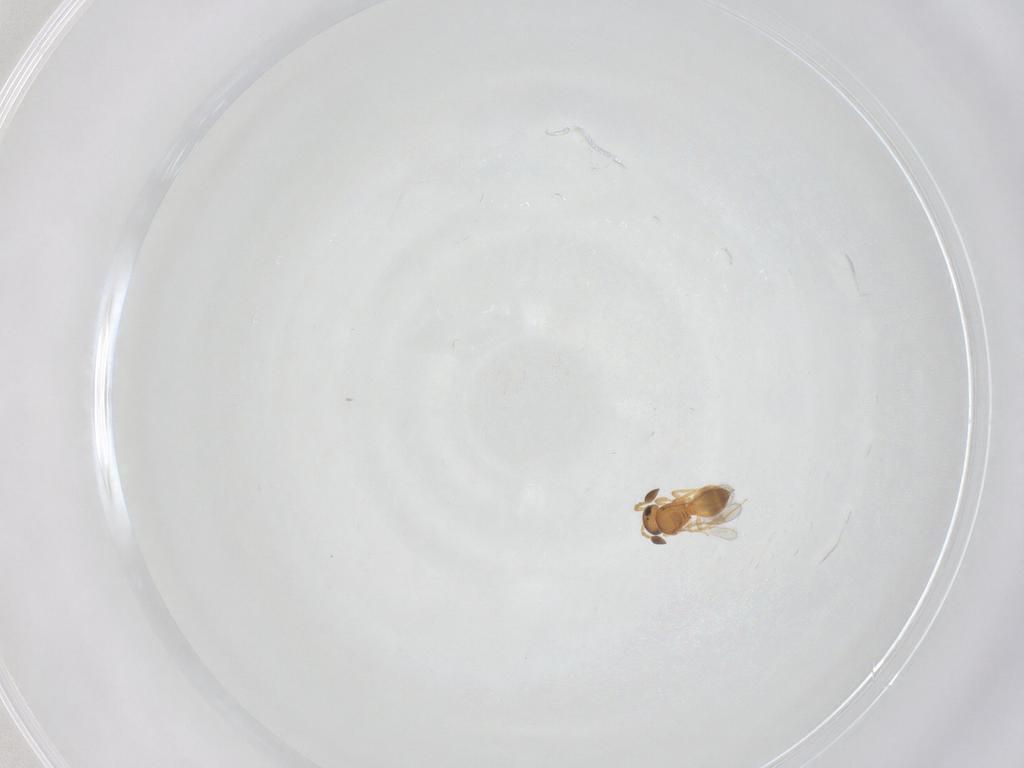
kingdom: Animalia
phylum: Arthropoda
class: Insecta
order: Hymenoptera
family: Scelionidae
